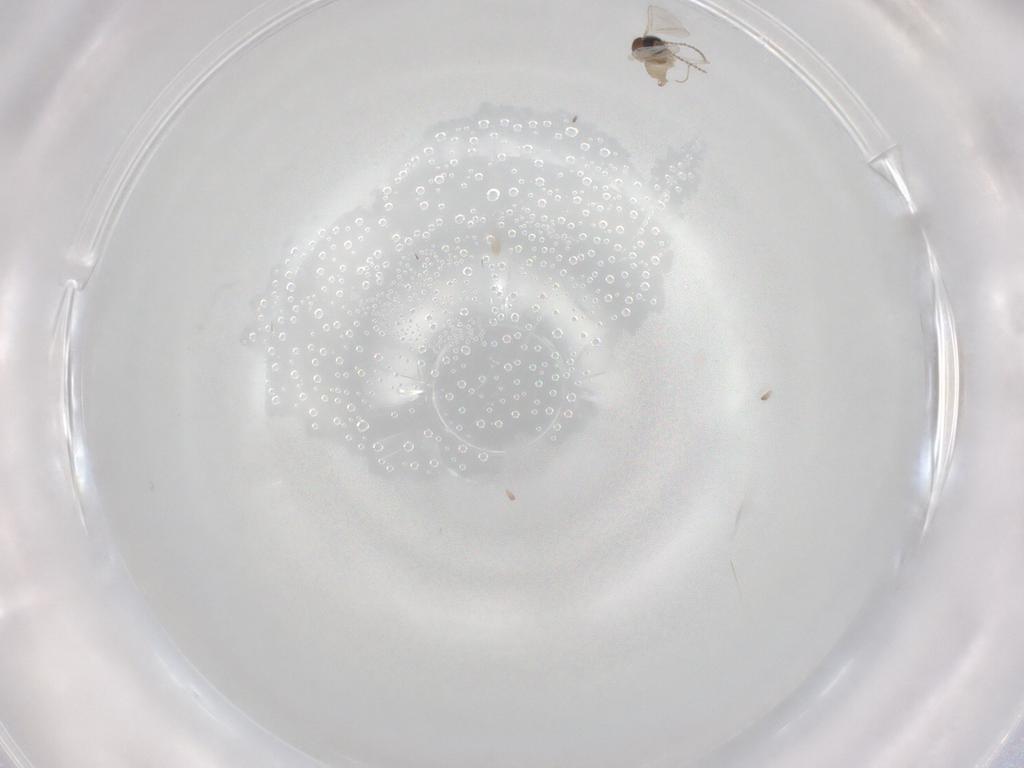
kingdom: Animalia
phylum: Arthropoda
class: Insecta
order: Diptera
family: Cecidomyiidae
